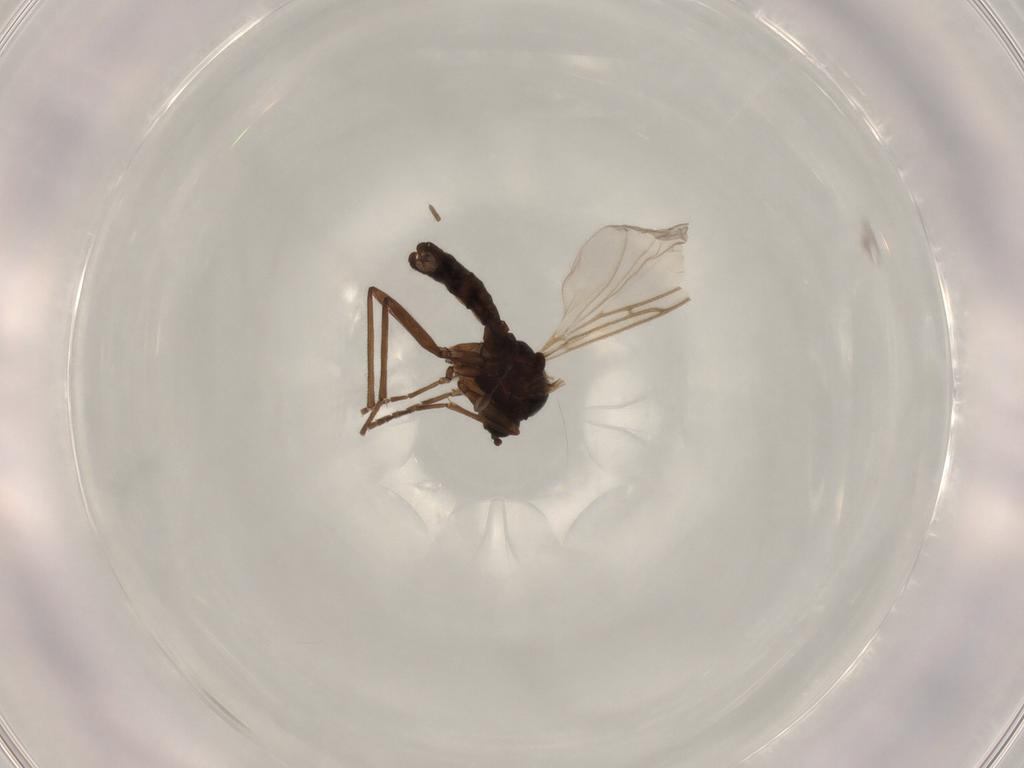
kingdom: Animalia
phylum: Arthropoda
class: Insecta
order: Diptera
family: Sciaridae
